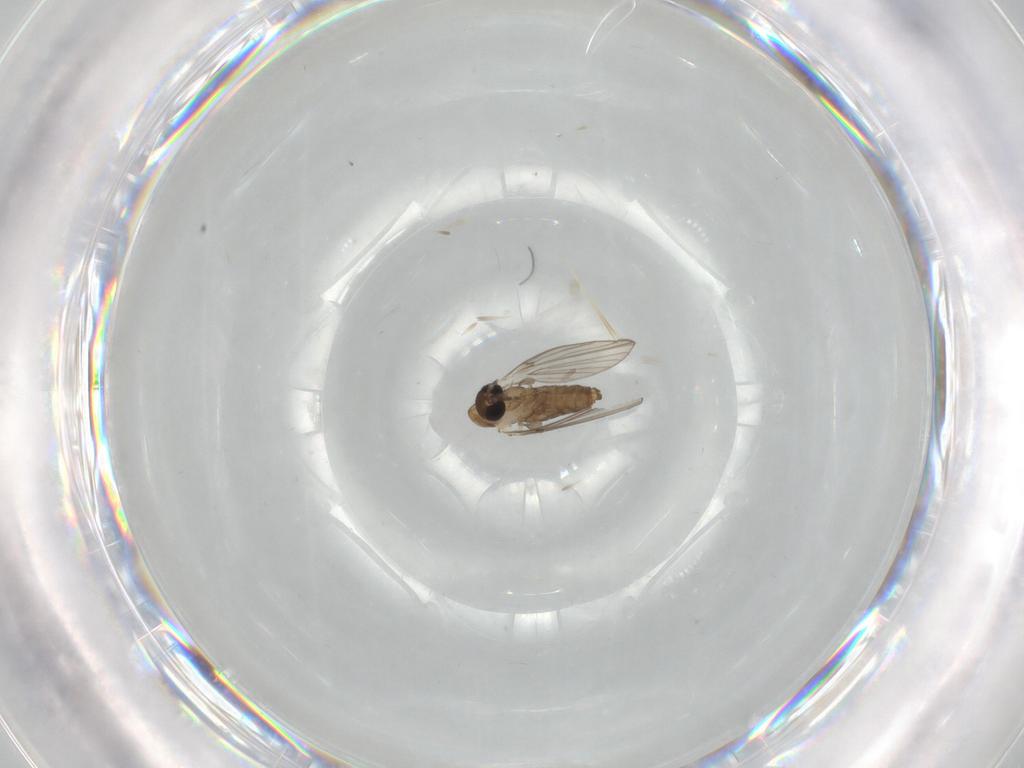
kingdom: Animalia
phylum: Arthropoda
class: Insecta
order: Diptera
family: Psychodidae
